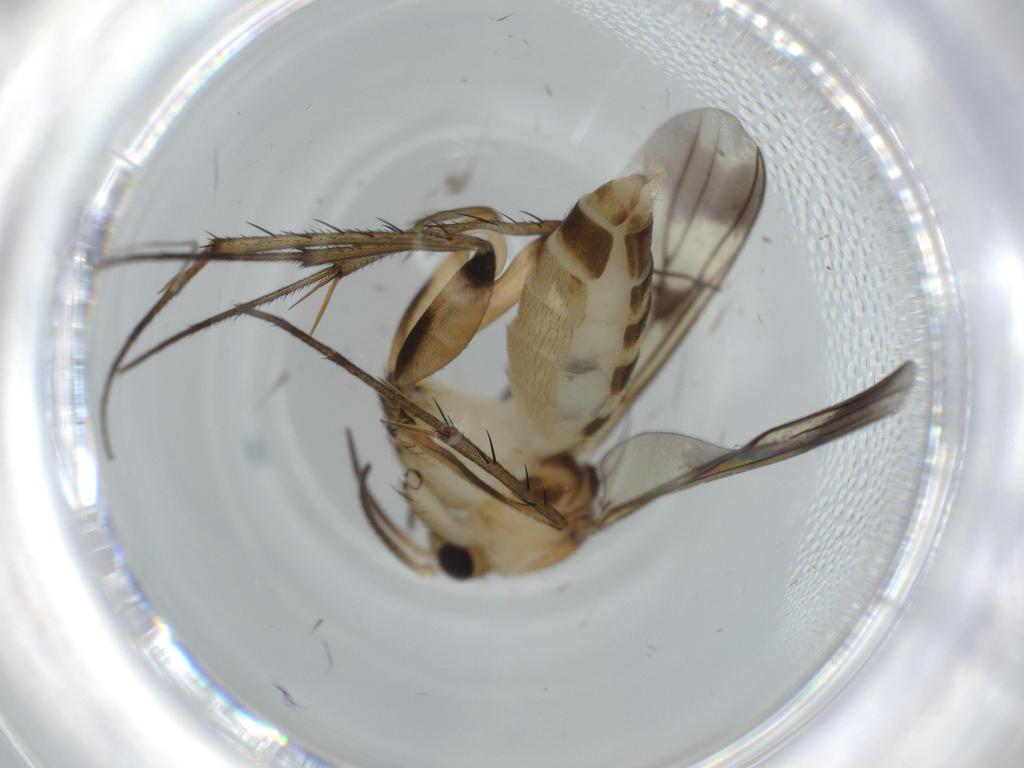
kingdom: Animalia
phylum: Arthropoda
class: Insecta
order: Diptera
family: Mycetophilidae
